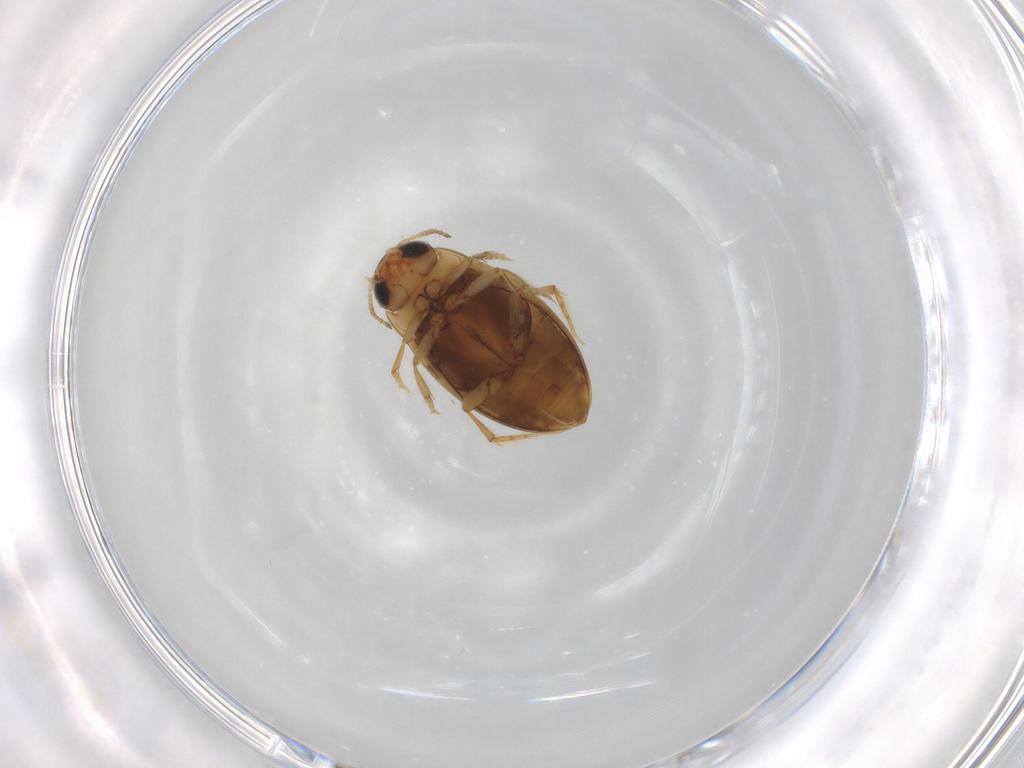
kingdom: Animalia
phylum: Arthropoda
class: Insecta
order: Coleoptera
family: Dytiscidae
